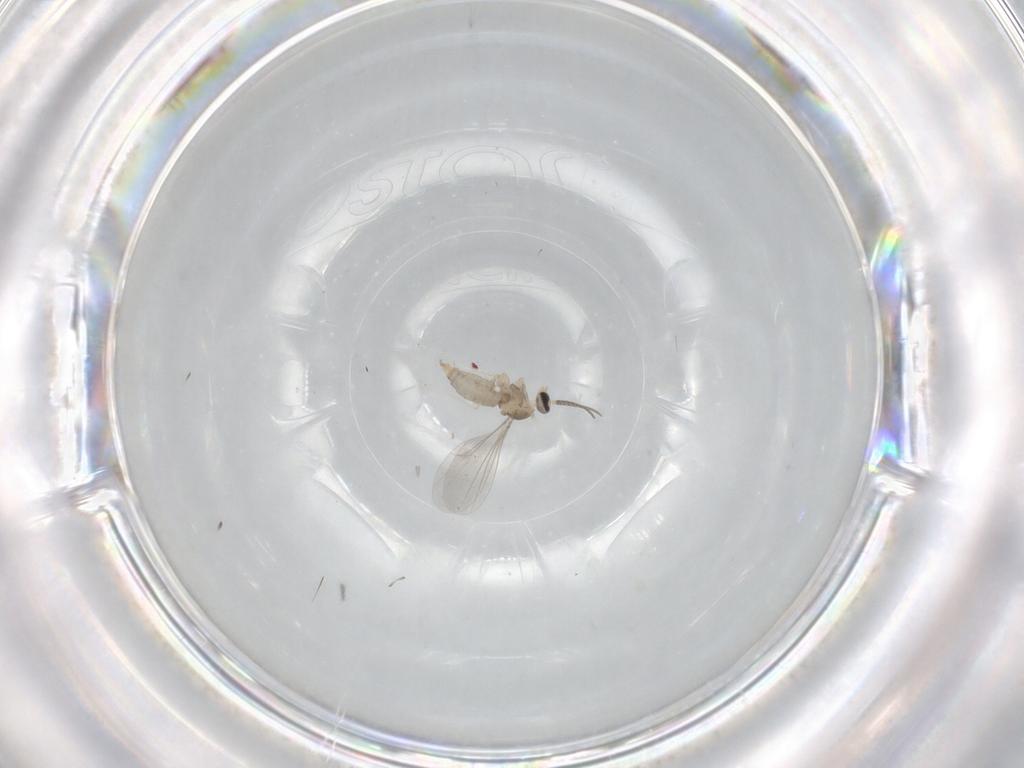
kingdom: Animalia
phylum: Arthropoda
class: Insecta
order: Diptera
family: Cecidomyiidae
